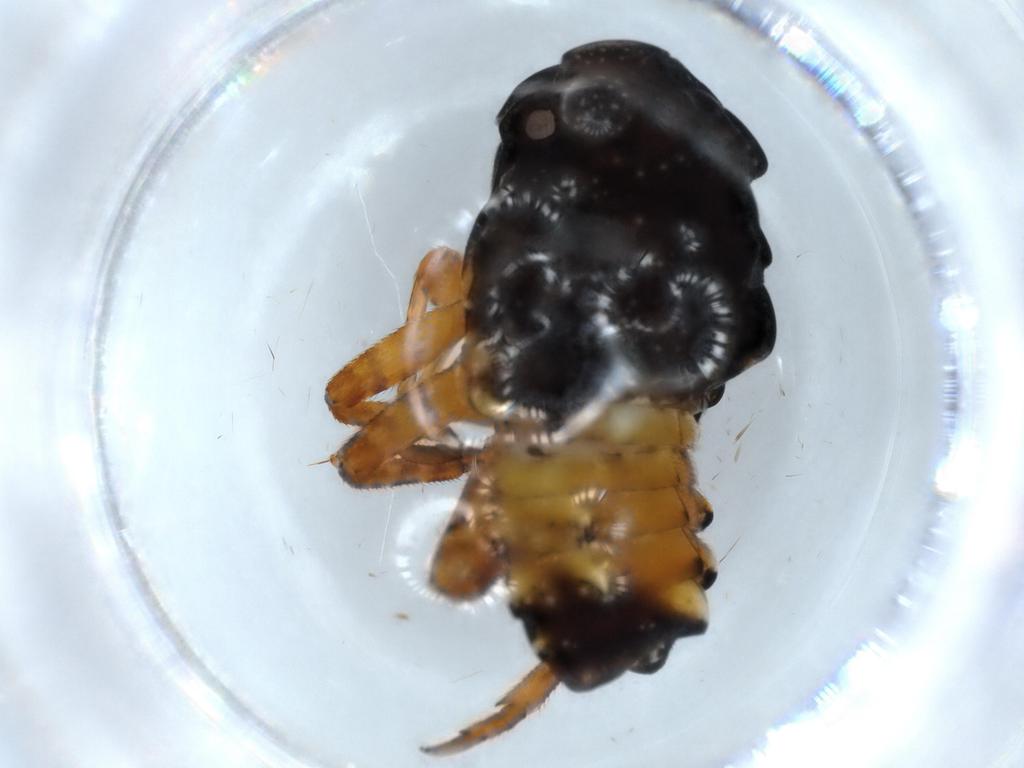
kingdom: Animalia
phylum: Arthropoda
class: Insecta
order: Hemiptera
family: Fulgoridae
